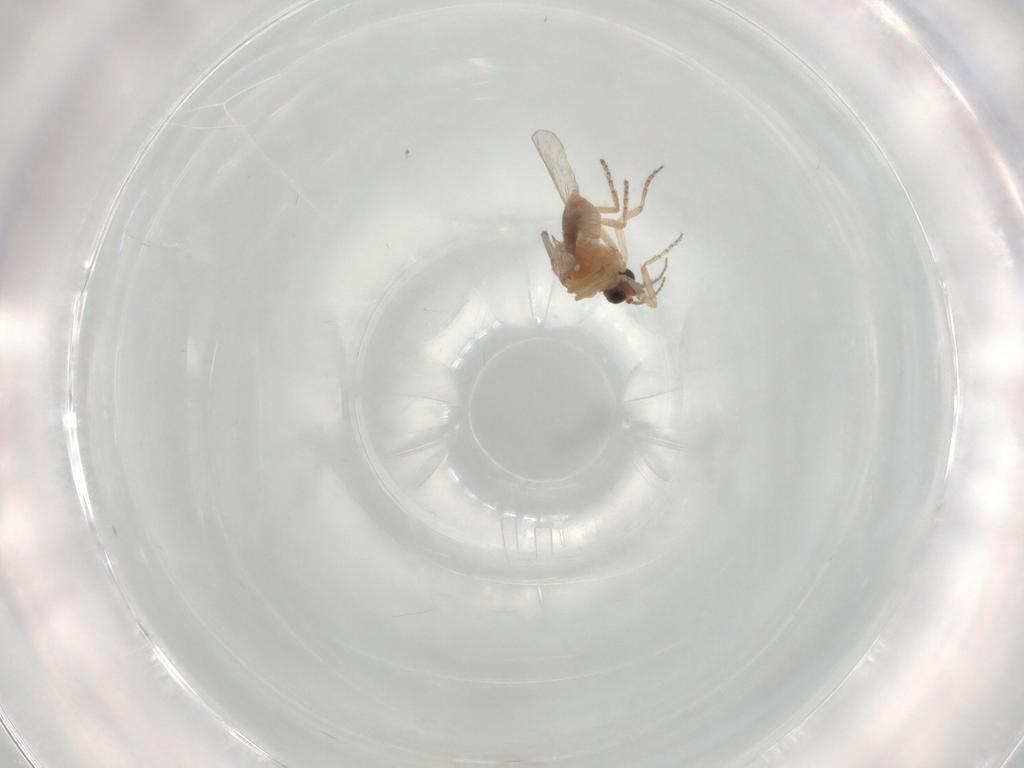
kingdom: Animalia
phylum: Arthropoda
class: Insecta
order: Diptera
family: Ceratopogonidae
